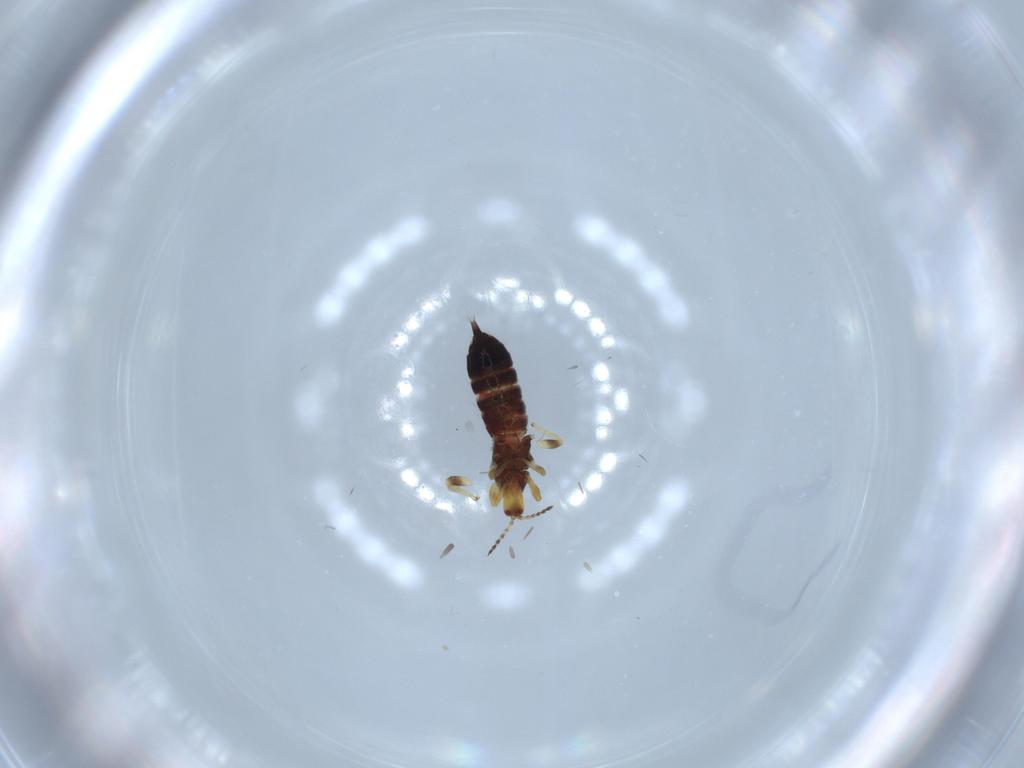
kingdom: Animalia
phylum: Arthropoda
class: Insecta
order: Thysanoptera
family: Phlaeothripidae
